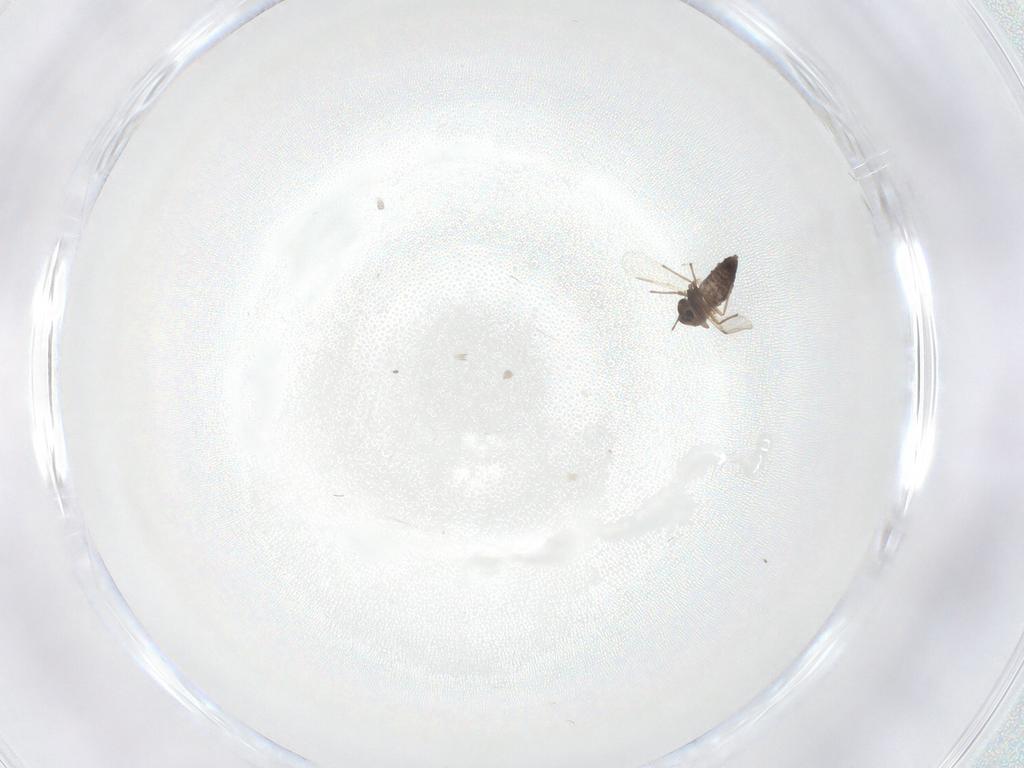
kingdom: Animalia
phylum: Arthropoda
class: Insecta
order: Diptera
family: Chironomidae
